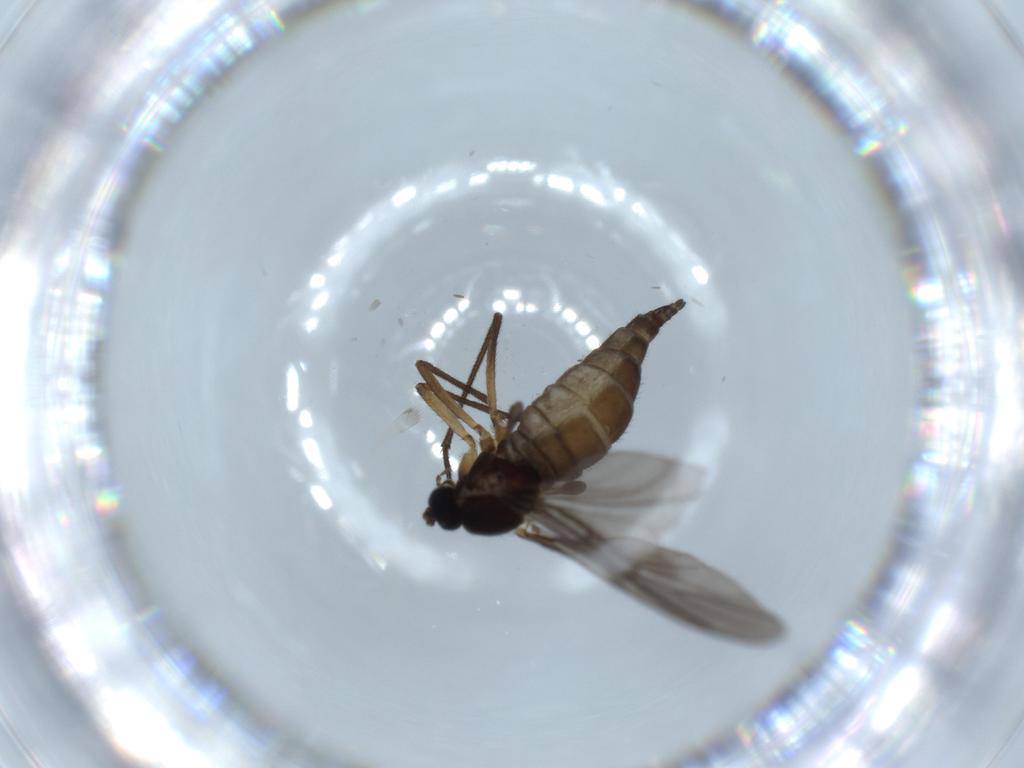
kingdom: Animalia
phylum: Arthropoda
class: Insecta
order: Diptera
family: Sciaridae
